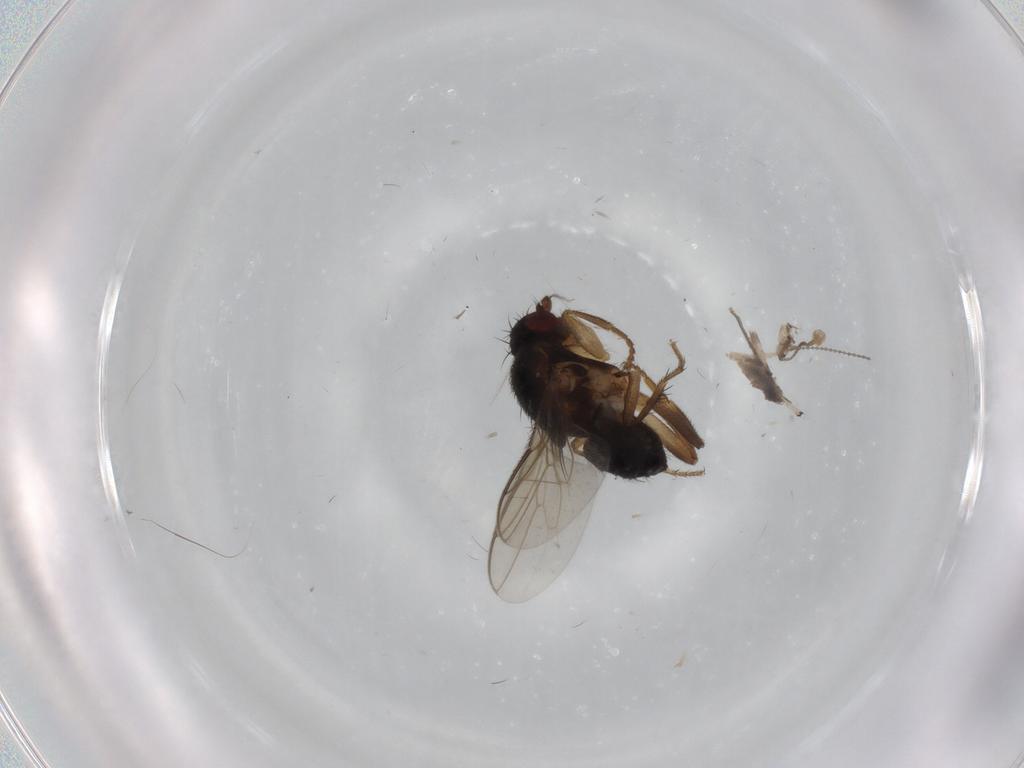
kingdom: Animalia
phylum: Arthropoda
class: Insecta
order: Diptera
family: Sphaeroceridae
